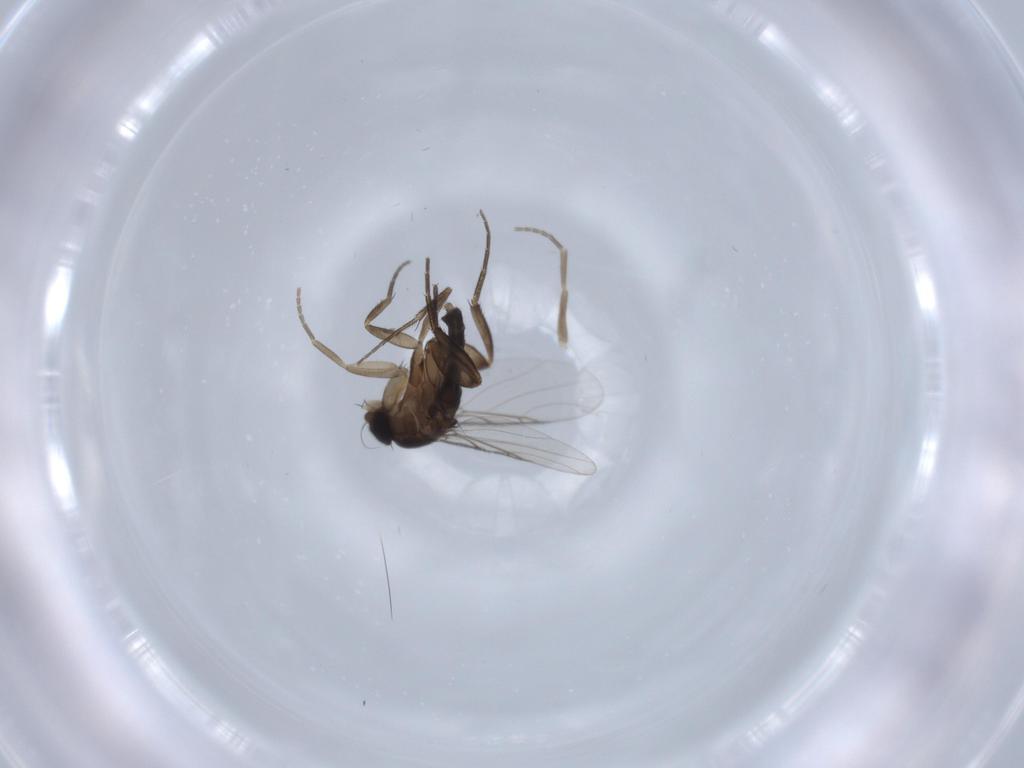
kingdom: Animalia
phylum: Arthropoda
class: Insecta
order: Diptera
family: Phoridae
